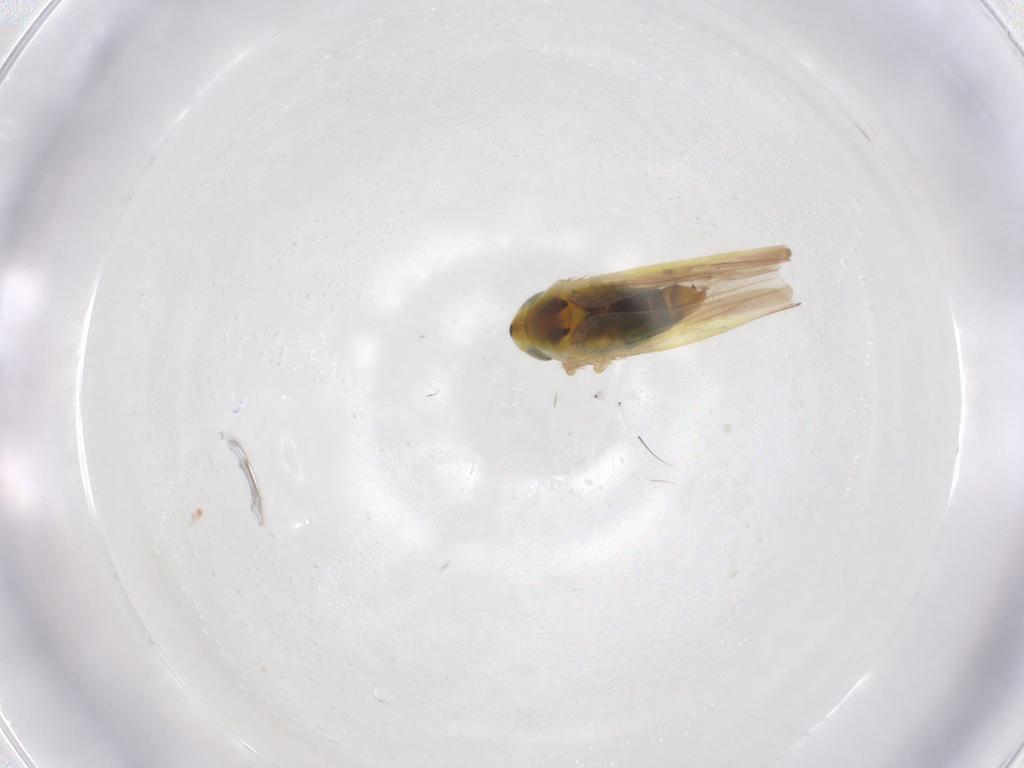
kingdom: Animalia
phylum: Arthropoda
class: Insecta
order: Hemiptera
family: Cicadellidae
